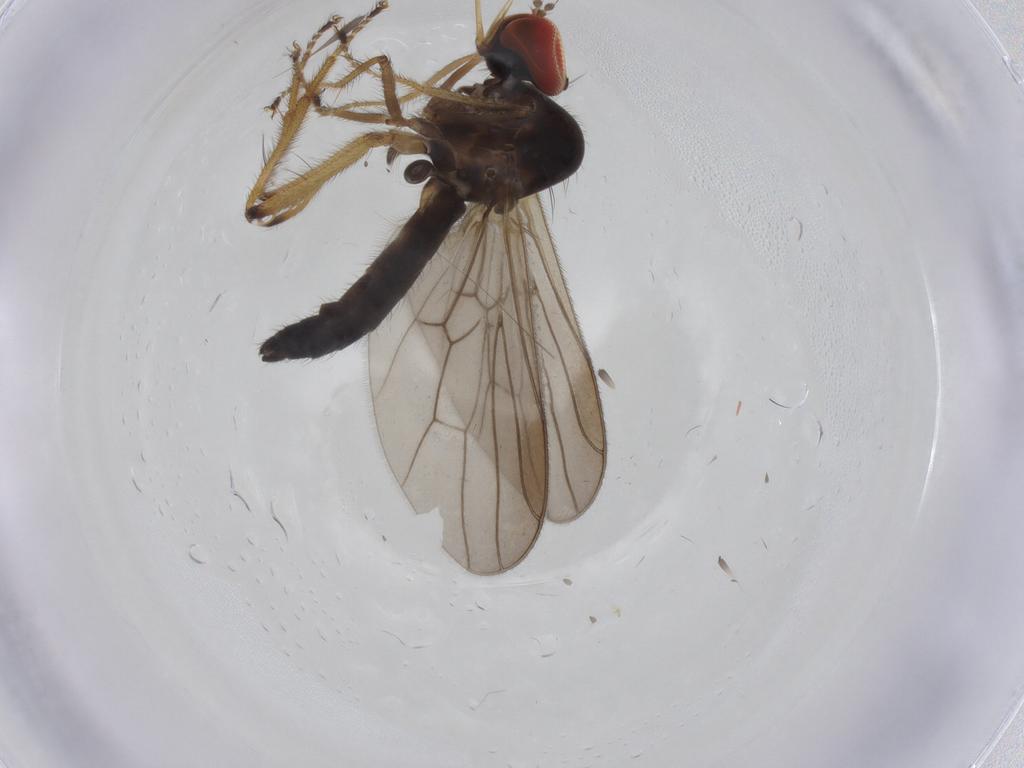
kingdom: Animalia
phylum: Arthropoda
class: Insecta
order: Diptera
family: Hybotidae
